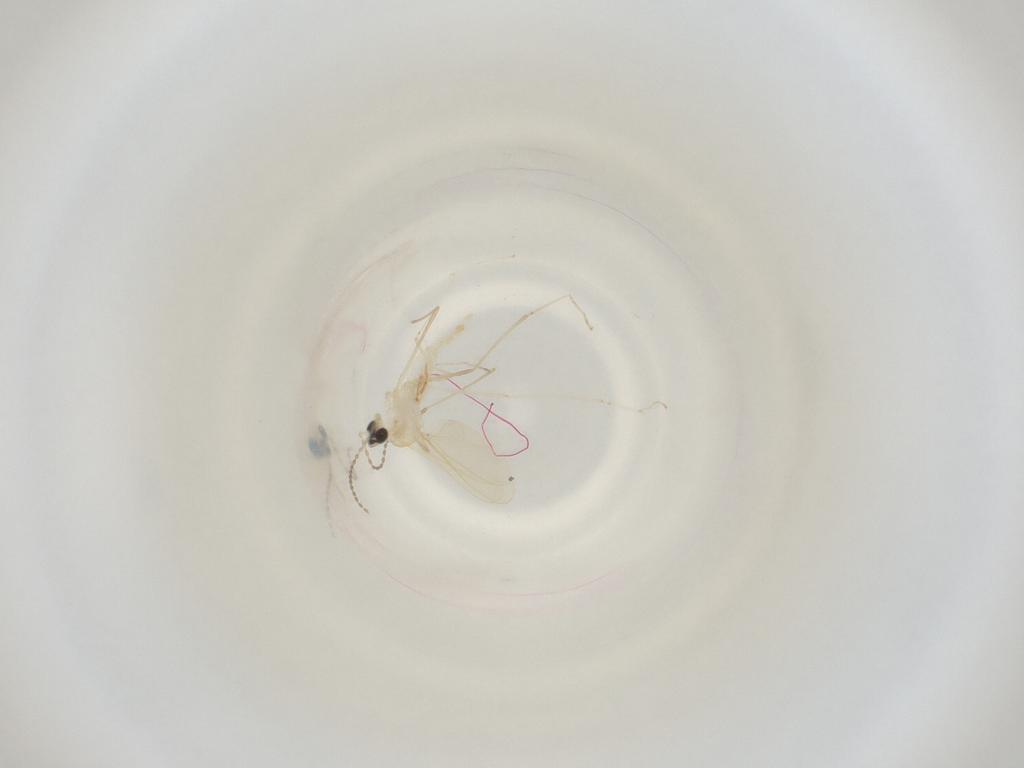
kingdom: Animalia
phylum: Arthropoda
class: Insecta
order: Diptera
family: Cecidomyiidae
